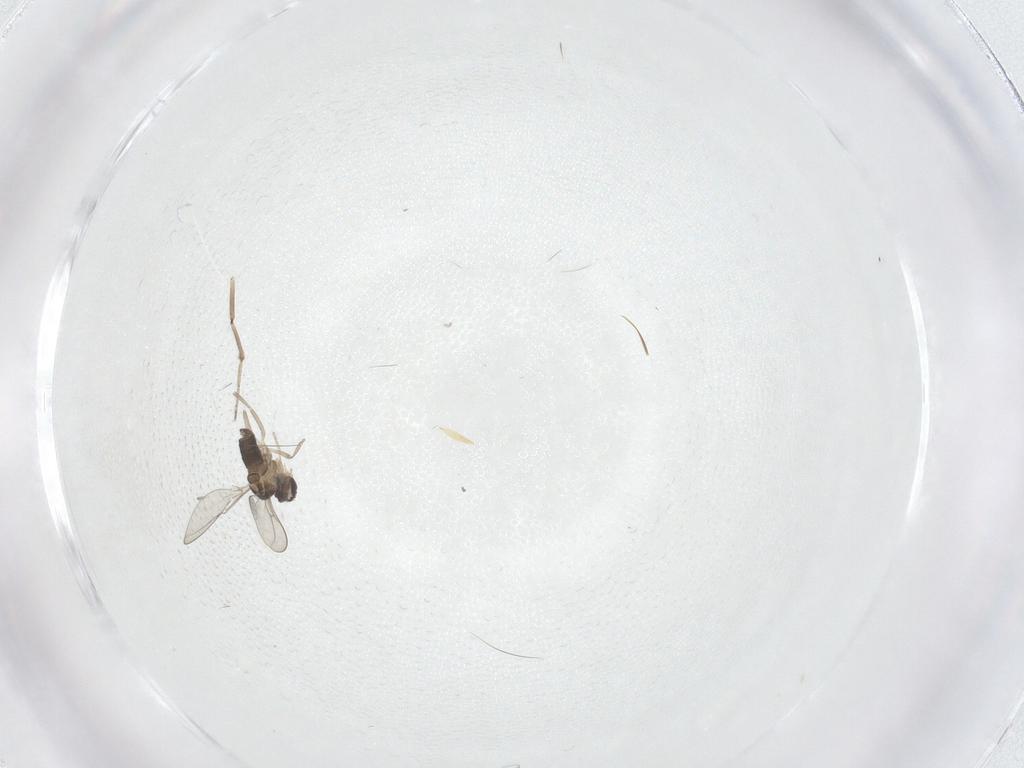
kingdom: Animalia
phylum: Arthropoda
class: Insecta
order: Diptera
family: Cecidomyiidae
